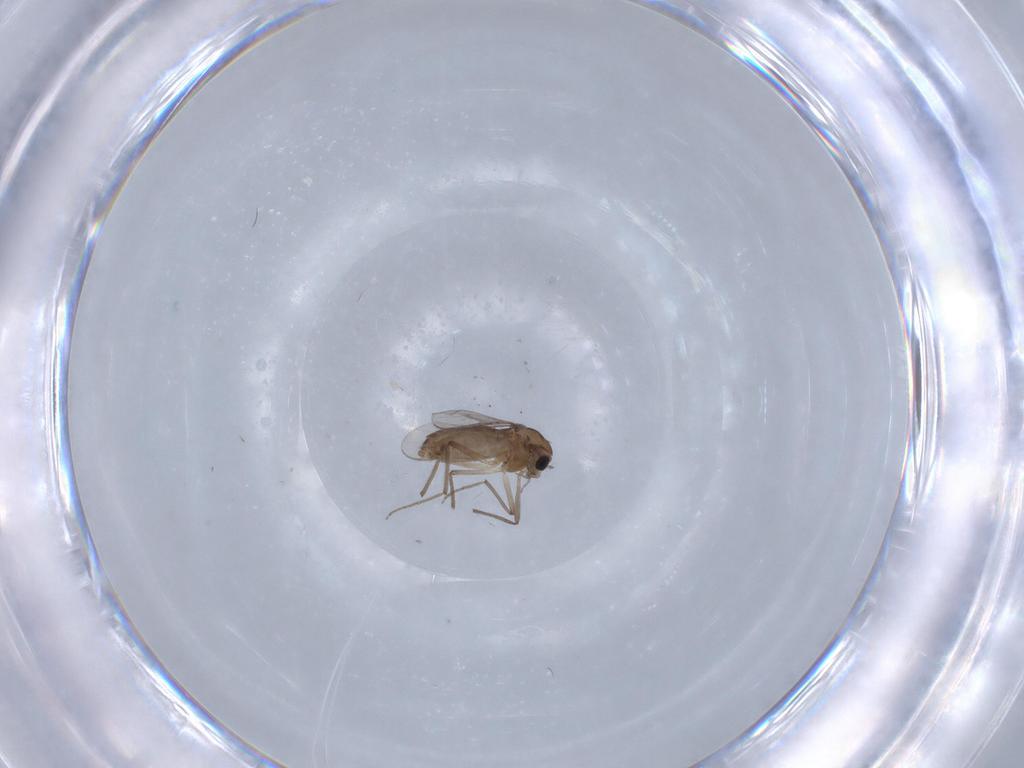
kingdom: Animalia
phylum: Arthropoda
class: Insecta
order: Diptera
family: Chironomidae
